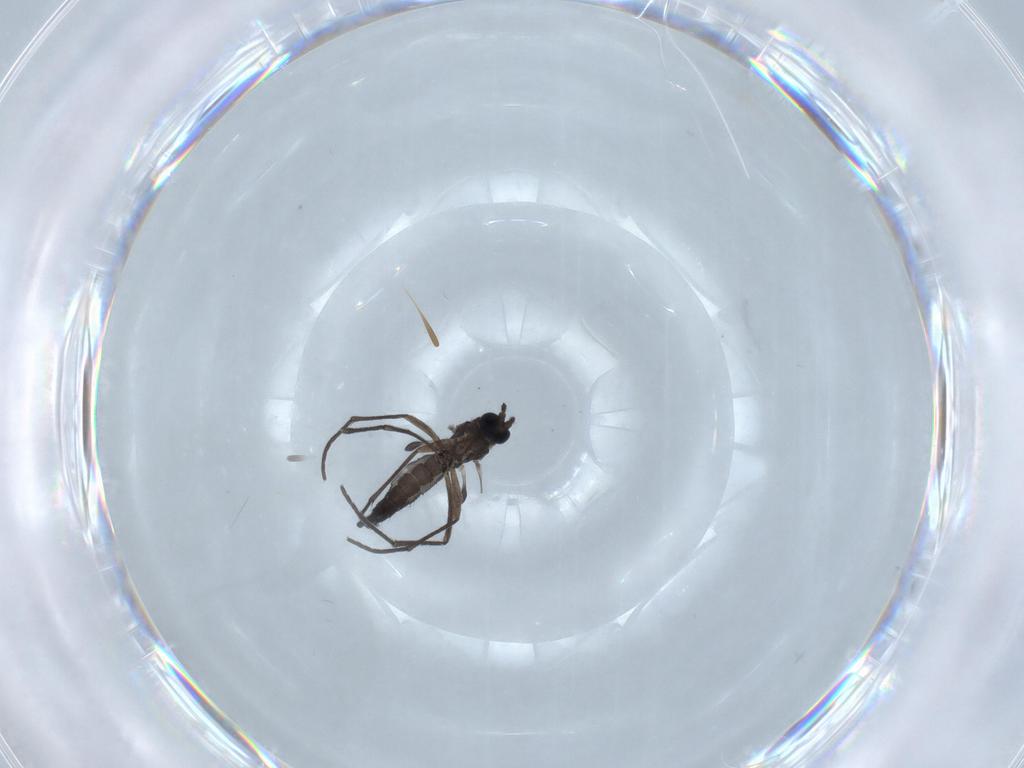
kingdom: Animalia
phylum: Arthropoda
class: Insecta
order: Diptera
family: Sciaridae
